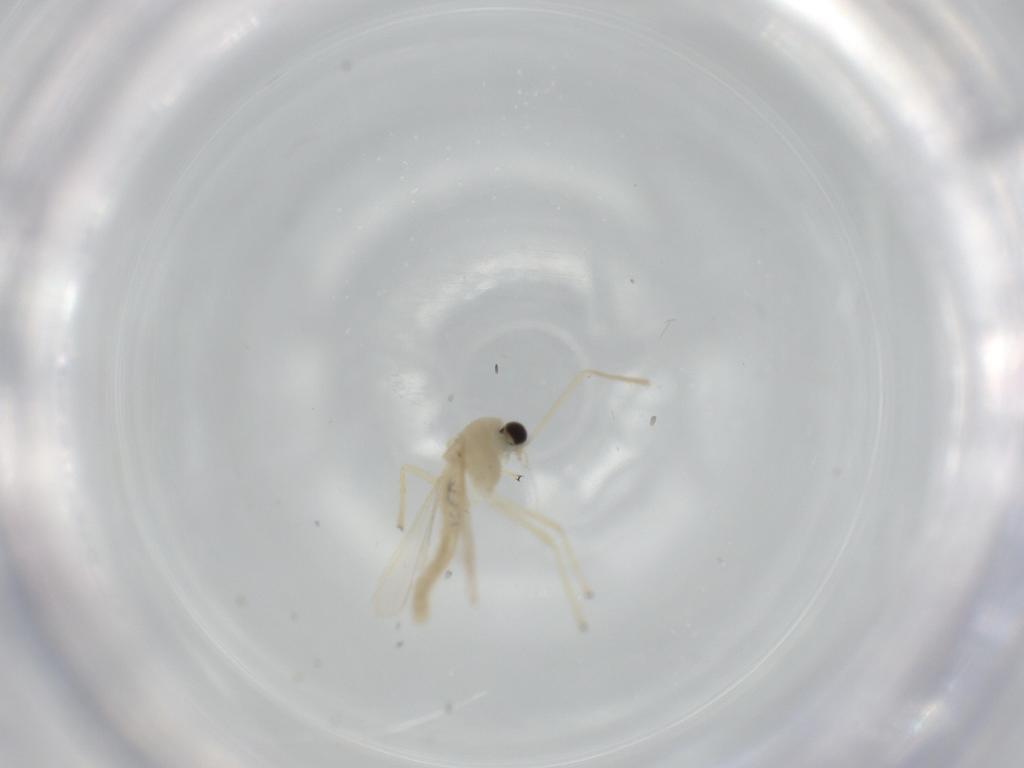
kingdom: Animalia
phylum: Arthropoda
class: Insecta
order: Diptera
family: Chironomidae
